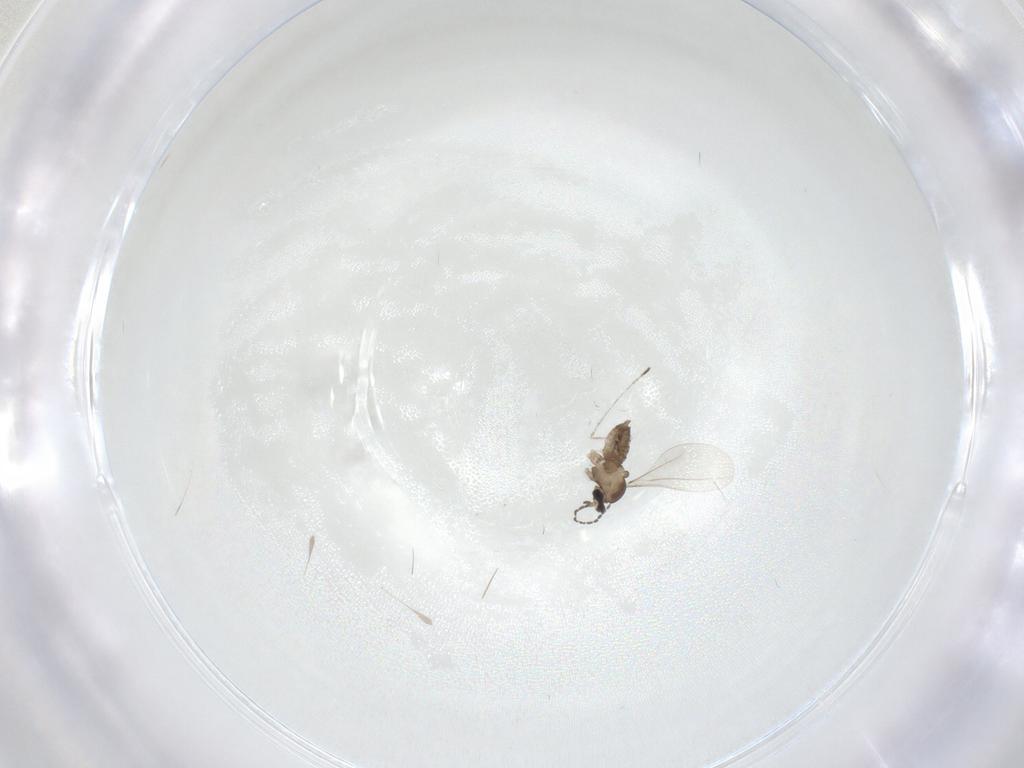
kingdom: Animalia
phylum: Arthropoda
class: Insecta
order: Diptera
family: Cecidomyiidae
